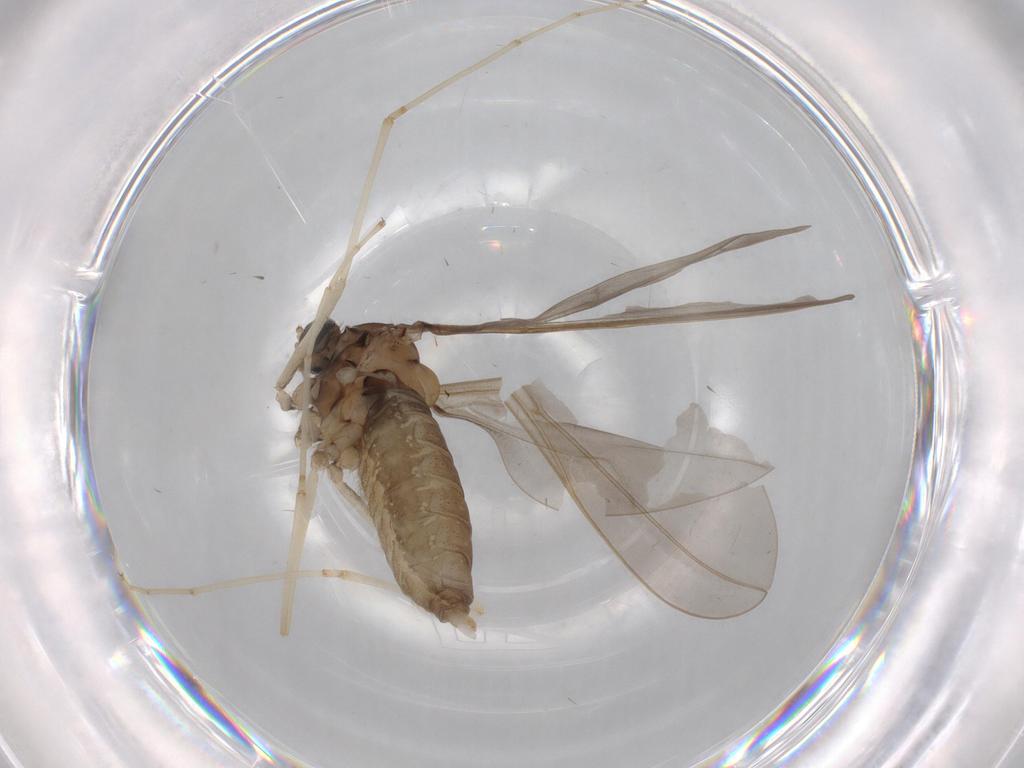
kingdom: Animalia
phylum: Arthropoda
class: Insecta
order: Diptera
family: Cecidomyiidae
